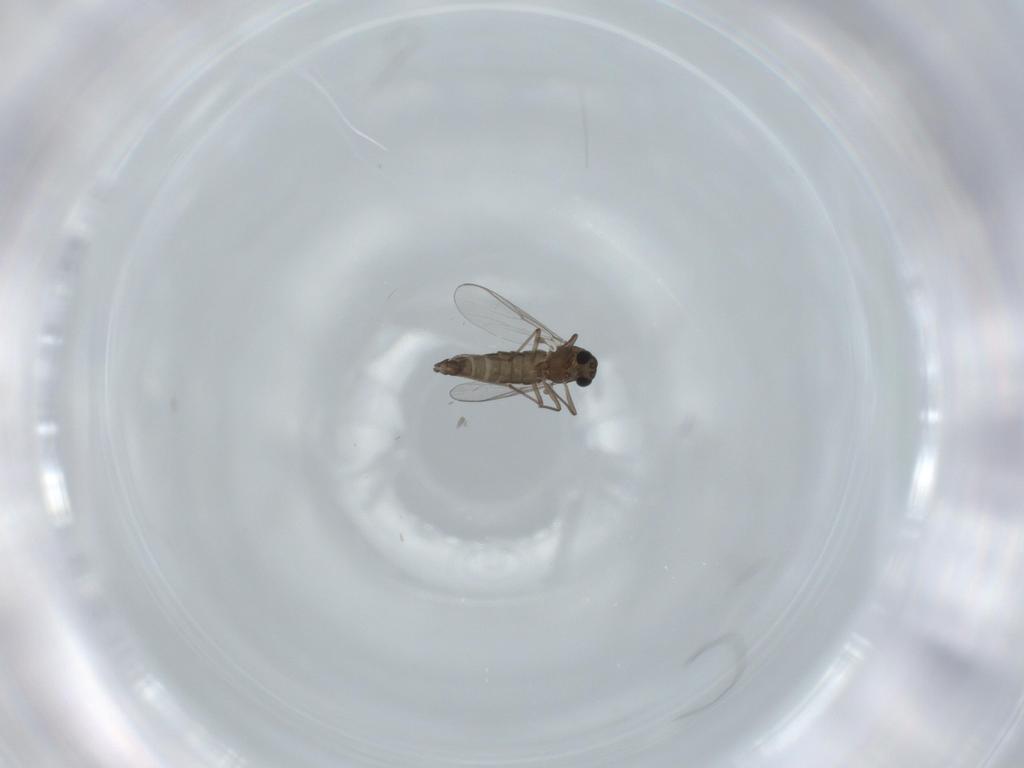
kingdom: Animalia
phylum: Arthropoda
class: Insecta
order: Diptera
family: Chironomidae
